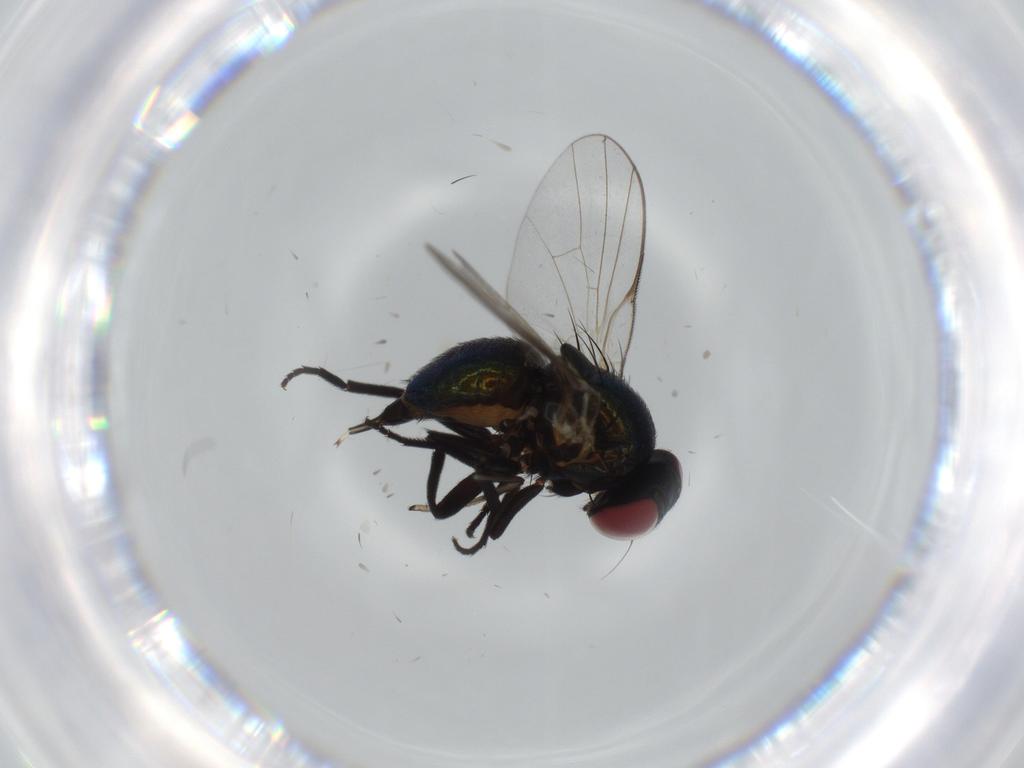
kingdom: Animalia
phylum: Arthropoda
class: Insecta
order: Diptera
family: Agromyzidae
